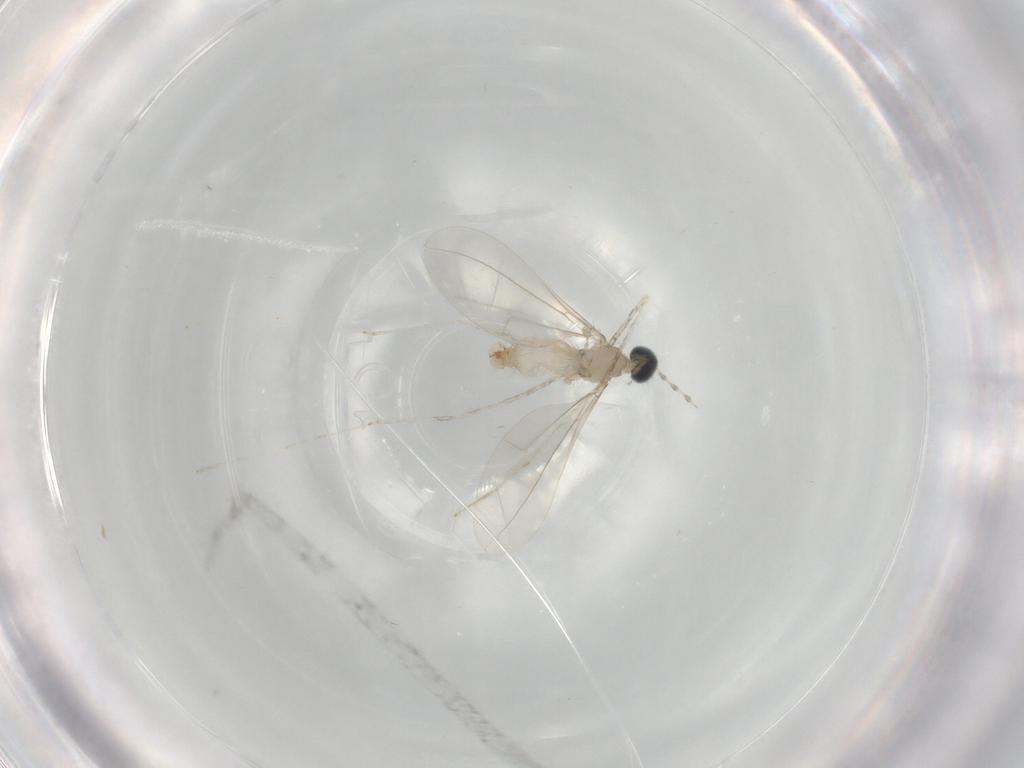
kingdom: Animalia
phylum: Arthropoda
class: Insecta
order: Diptera
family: Cecidomyiidae
